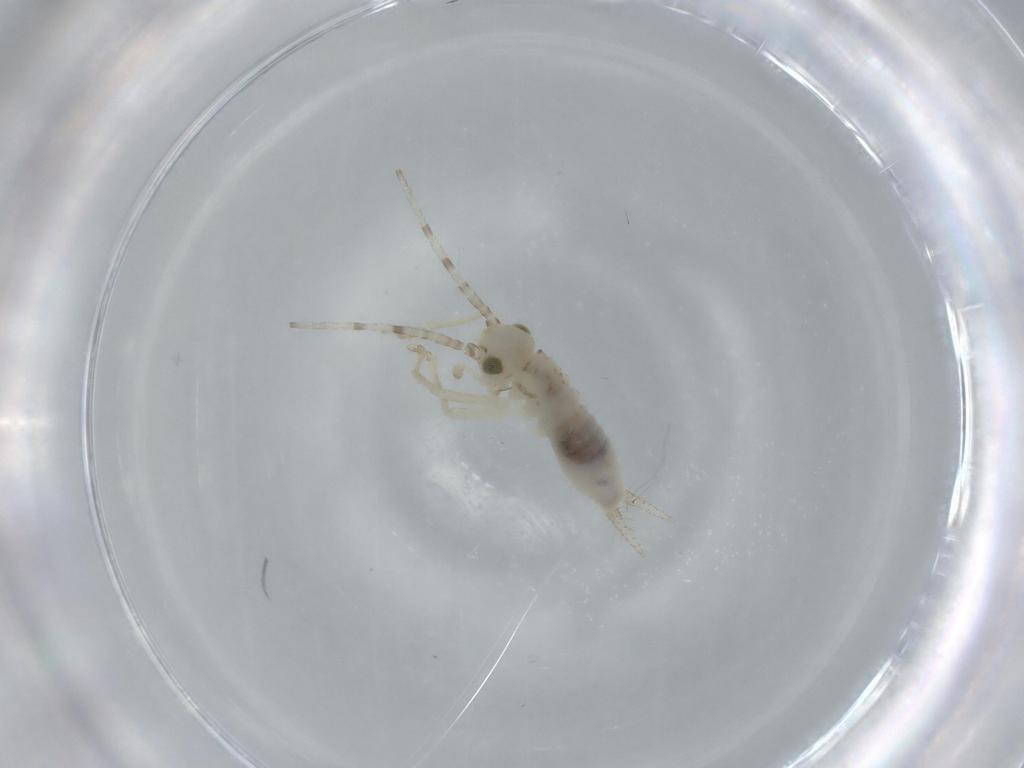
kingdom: Animalia
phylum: Arthropoda
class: Insecta
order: Orthoptera
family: Trigonidiidae
